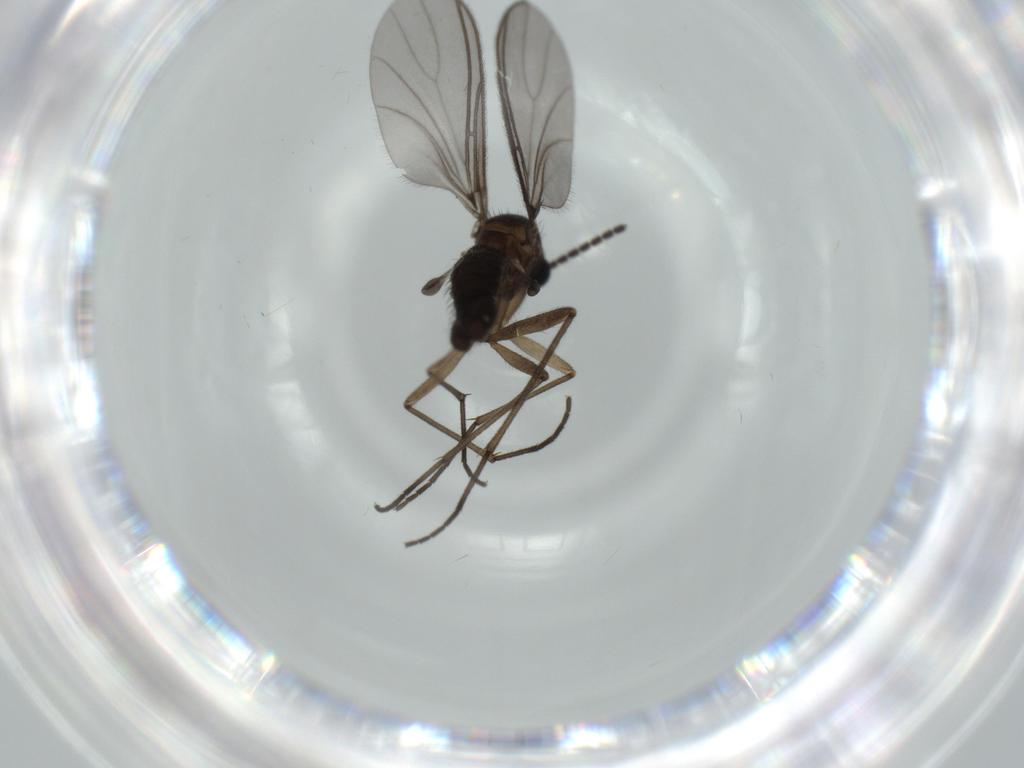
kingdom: Animalia
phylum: Arthropoda
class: Insecta
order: Diptera
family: Sciaridae
